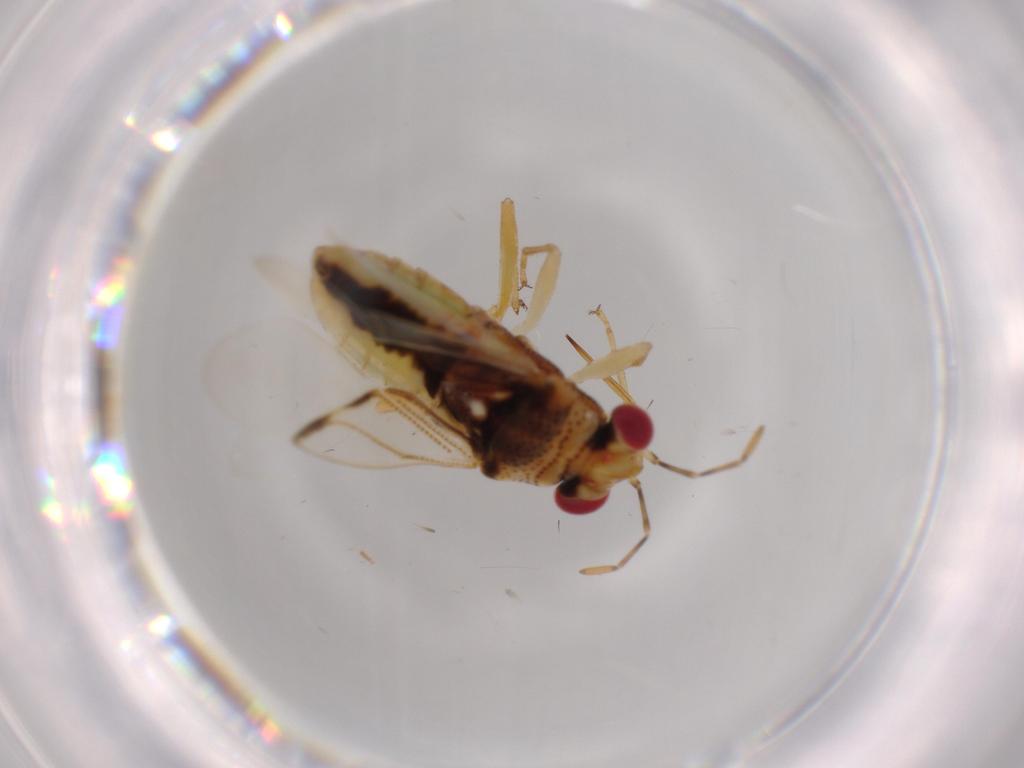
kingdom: Animalia
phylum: Arthropoda
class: Insecta
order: Hemiptera
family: Geocoridae
